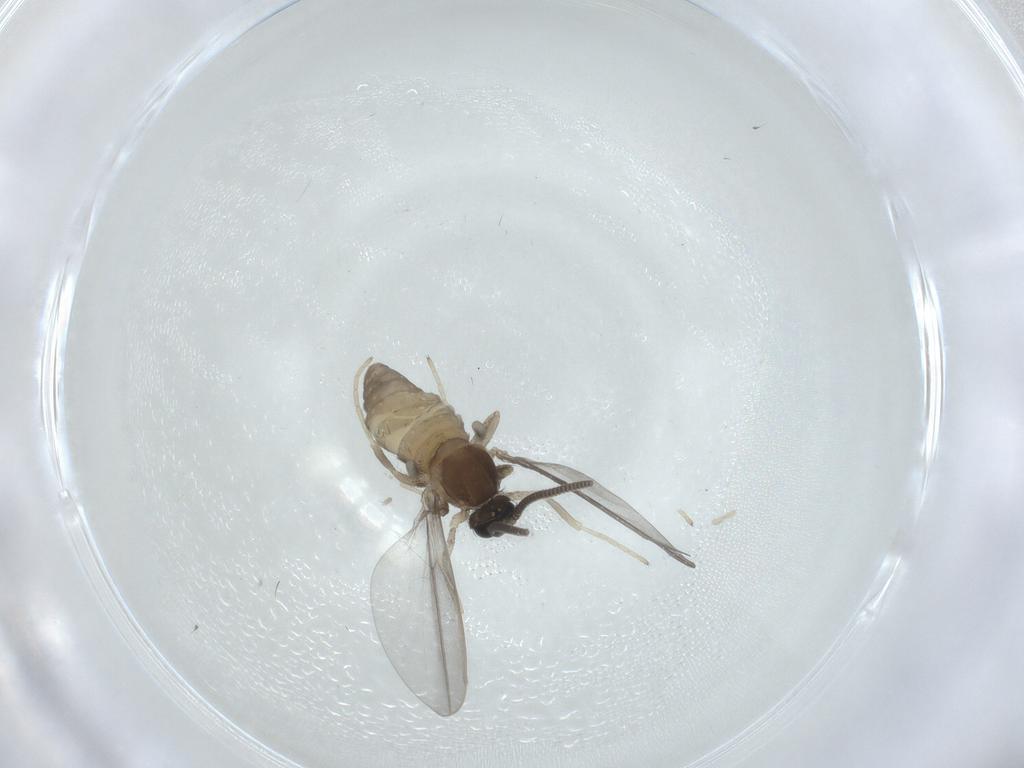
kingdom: Animalia
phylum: Arthropoda
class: Insecta
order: Diptera
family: Cecidomyiidae
